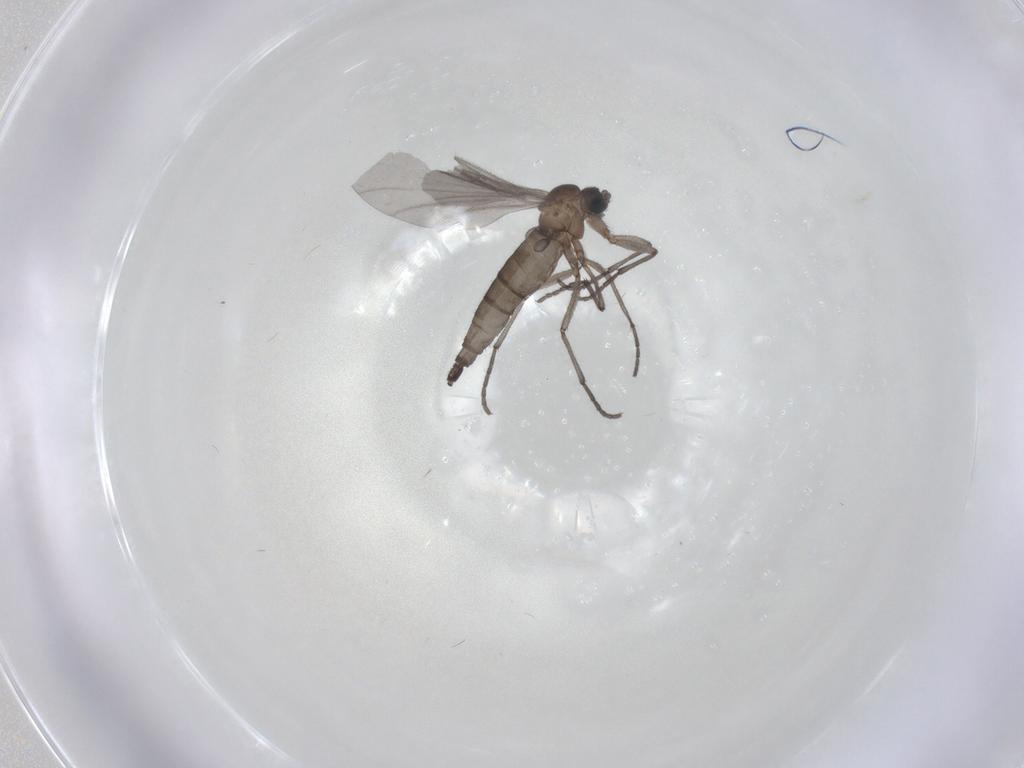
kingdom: Animalia
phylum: Arthropoda
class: Insecta
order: Diptera
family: Sciaridae
